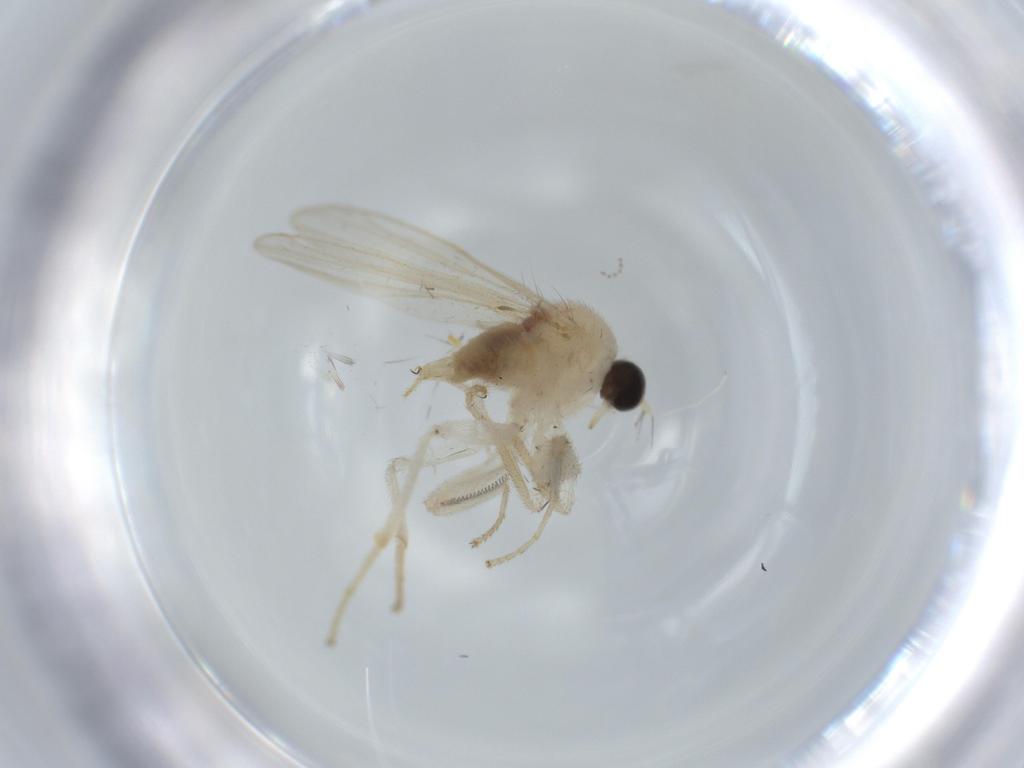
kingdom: Animalia
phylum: Arthropoda
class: Insecta
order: Diptera
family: Hybotidae
